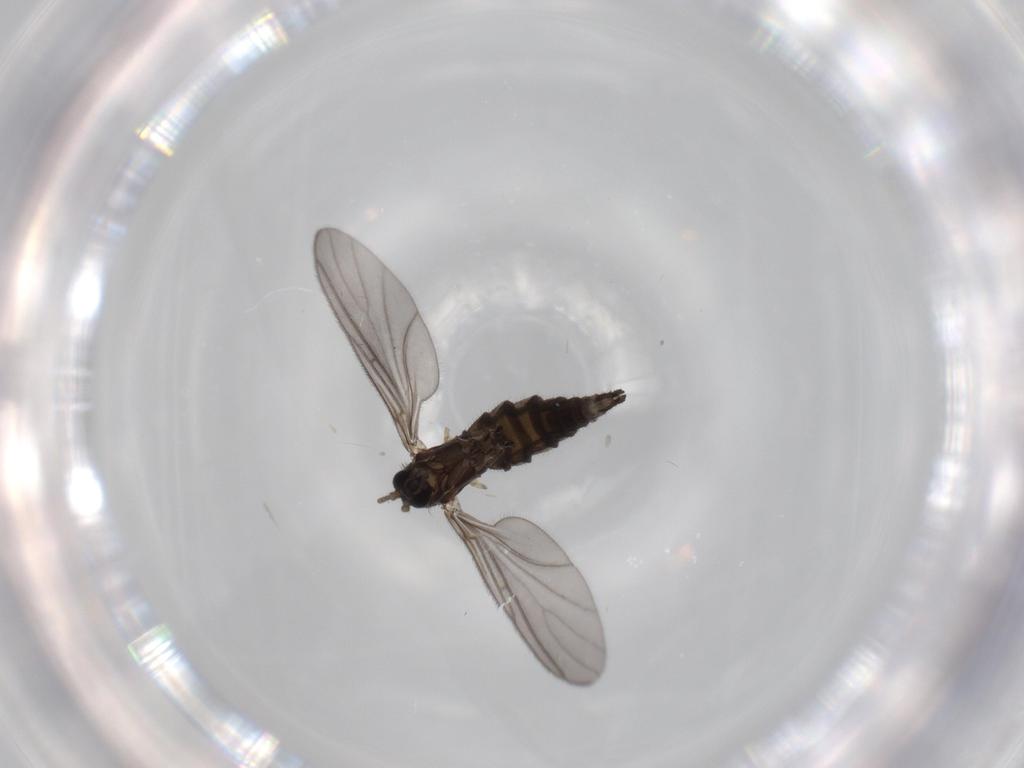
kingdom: Animalia
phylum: Arthropoda
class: Insecta
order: Diptera
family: Sciaridae
